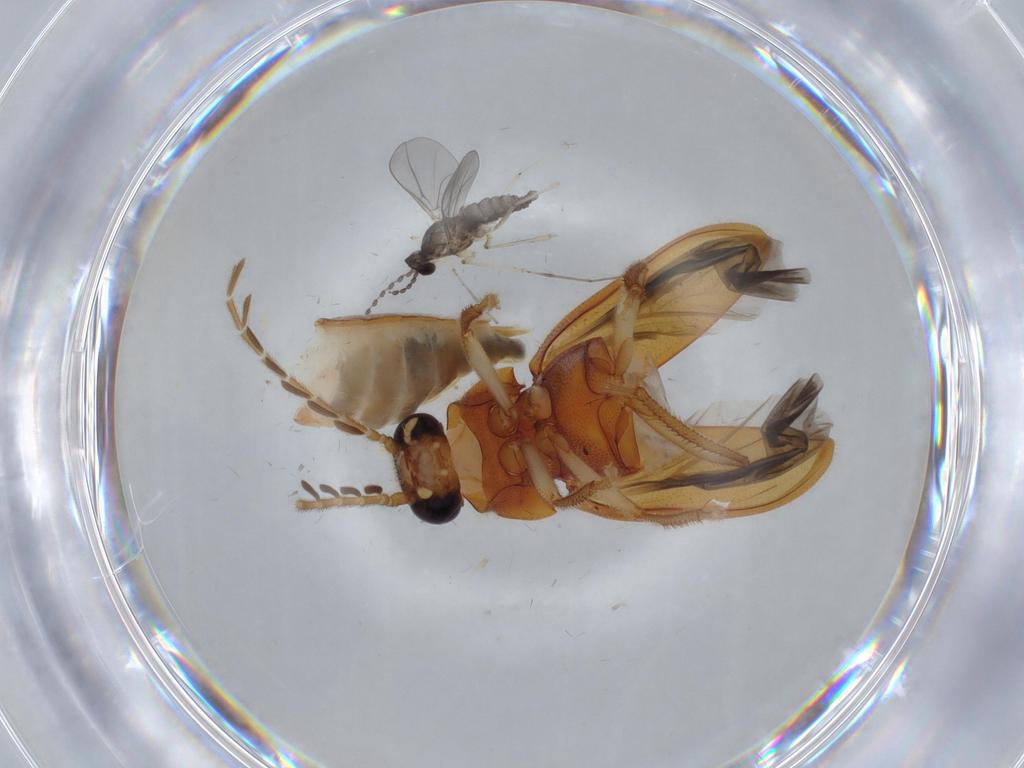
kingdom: Animalia
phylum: Arthropoda
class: Insecta
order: Coleoptera
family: Ptilodactylidae
